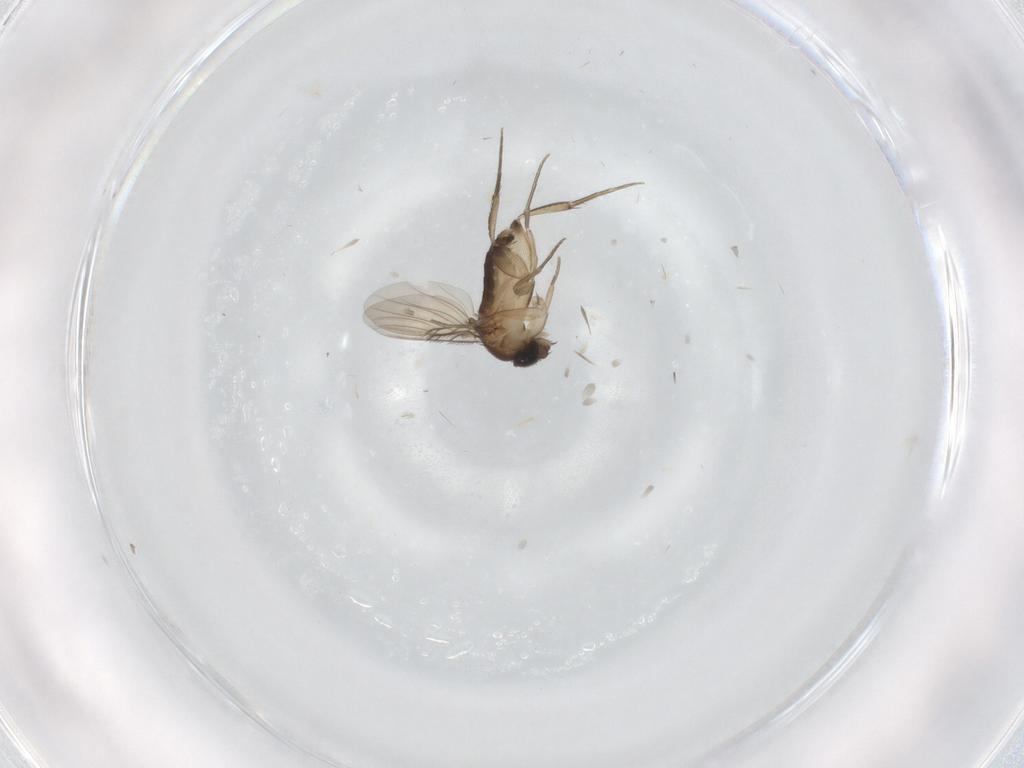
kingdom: Animalia
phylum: Arthropoda
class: Insecta
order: Diptera
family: Phoridae
